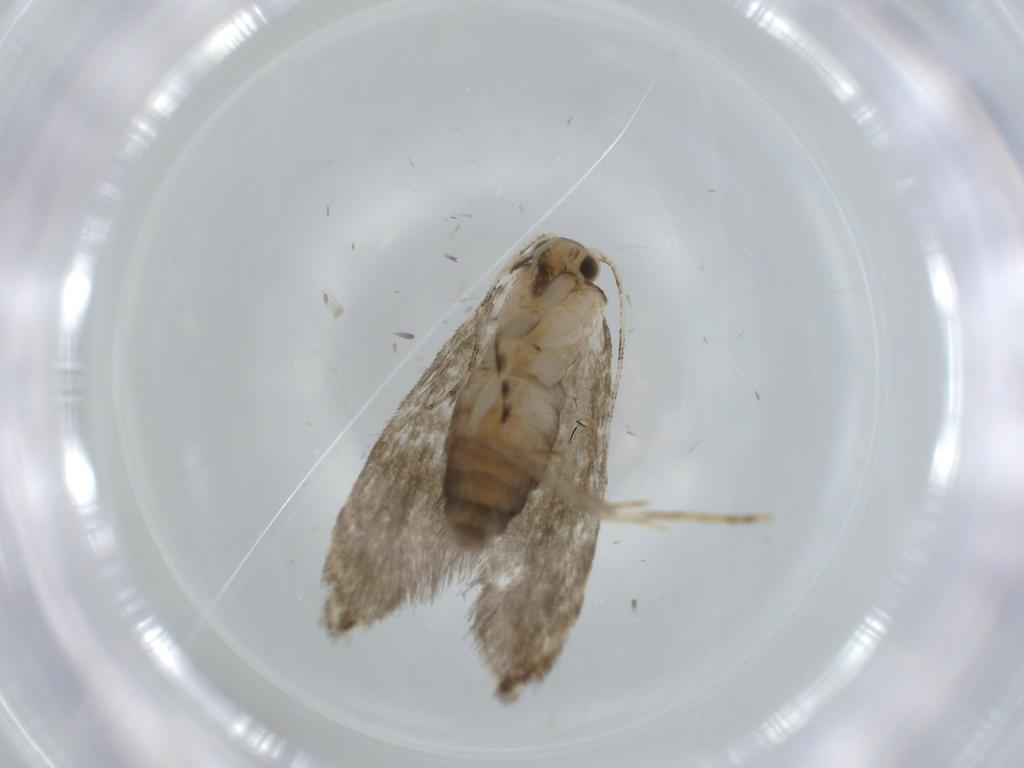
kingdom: Animalia
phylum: Arthropoda
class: Insecta
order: Lepidoptera
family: Tineidae
